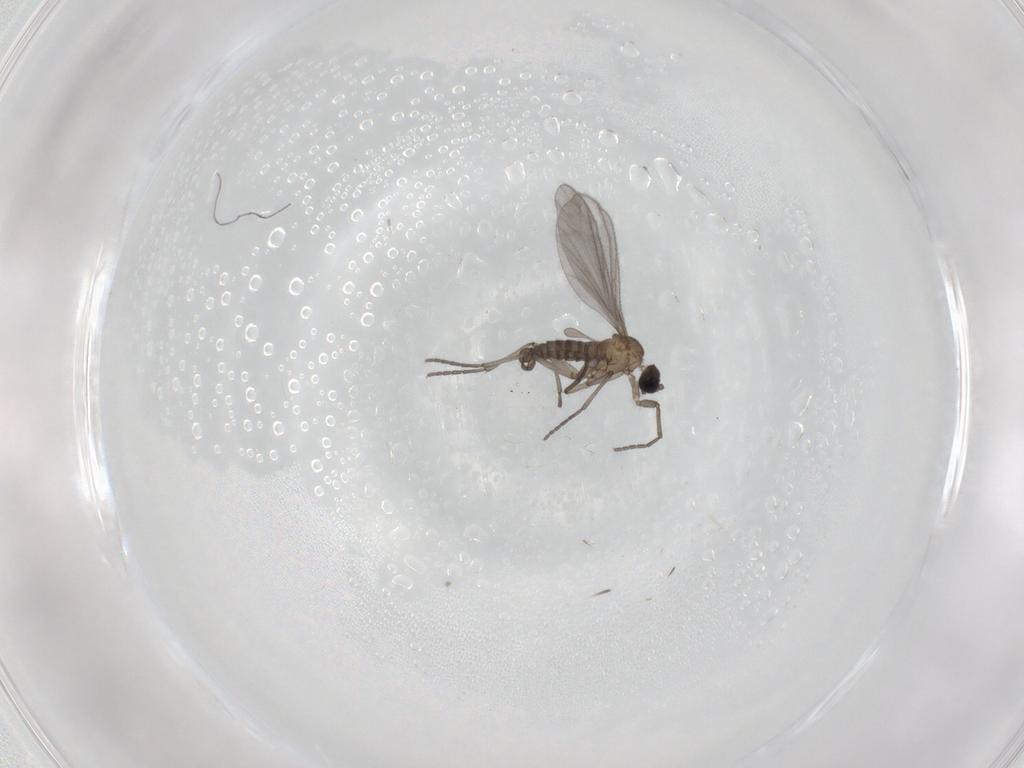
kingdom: Animalia
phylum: Arthropoda
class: Insecta
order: Diptera
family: Sciaridae
